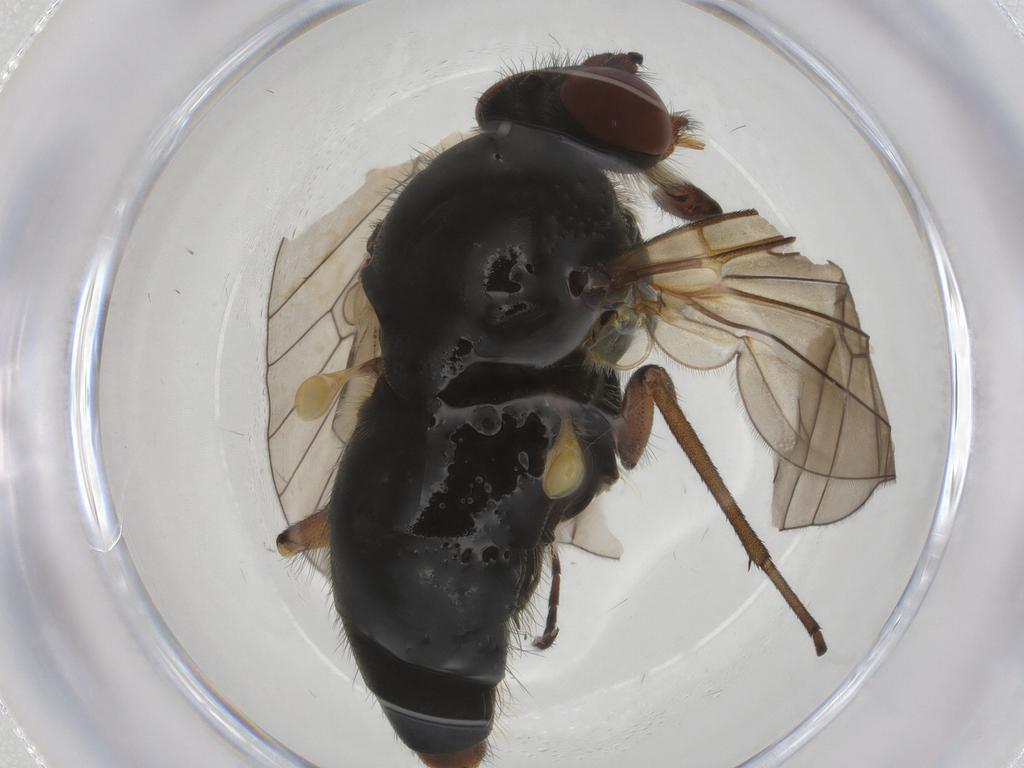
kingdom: Animalia
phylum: Arthropoda
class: Insecta
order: Diptera
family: Rhagionidae
